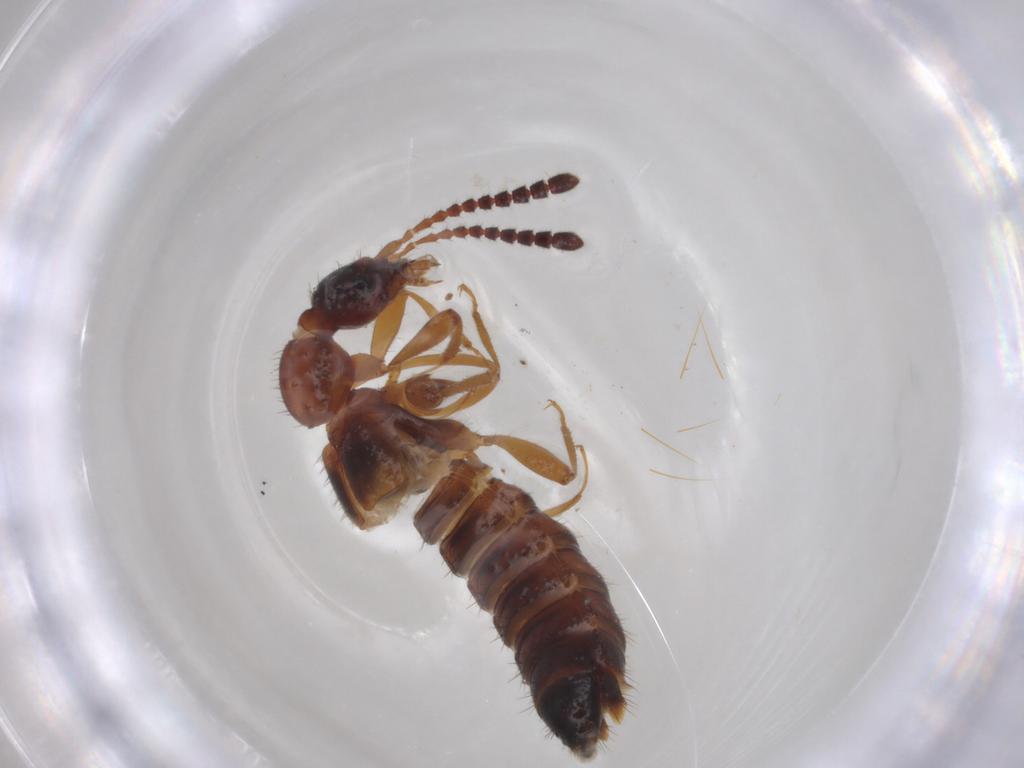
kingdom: Animalia
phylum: Arthropoda
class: Insecta
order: Coleoptera
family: Staphylinidae
